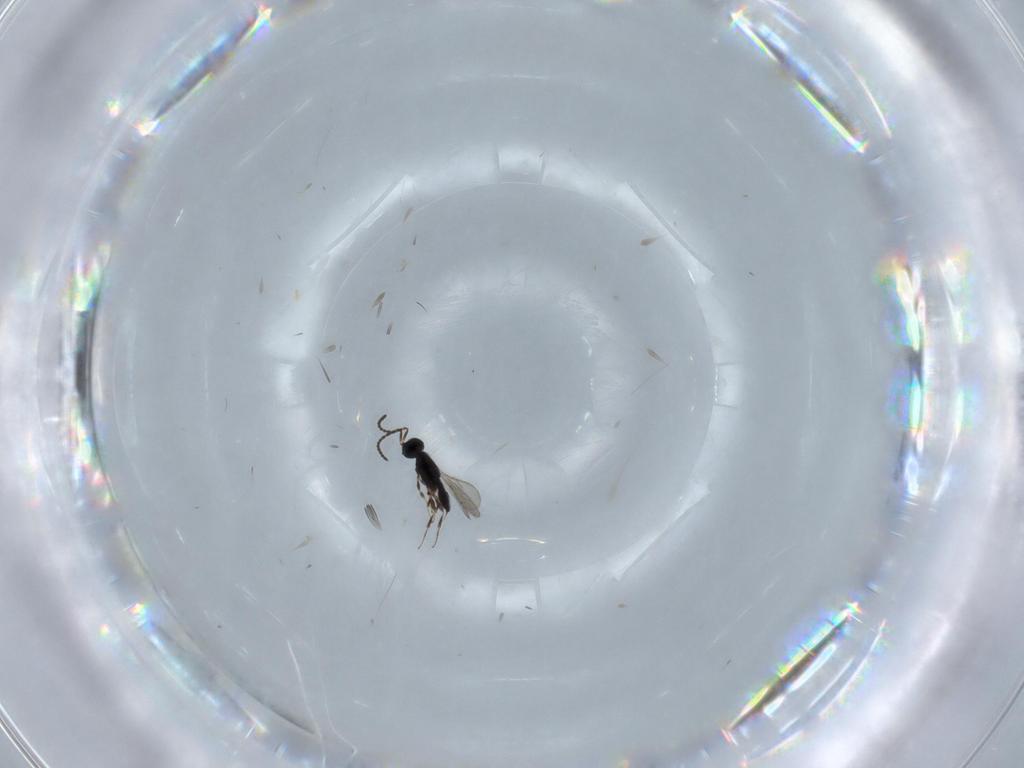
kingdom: Animalia
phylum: Arthropoda
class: Insecta
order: Hymenoptera
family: Scelionidae
